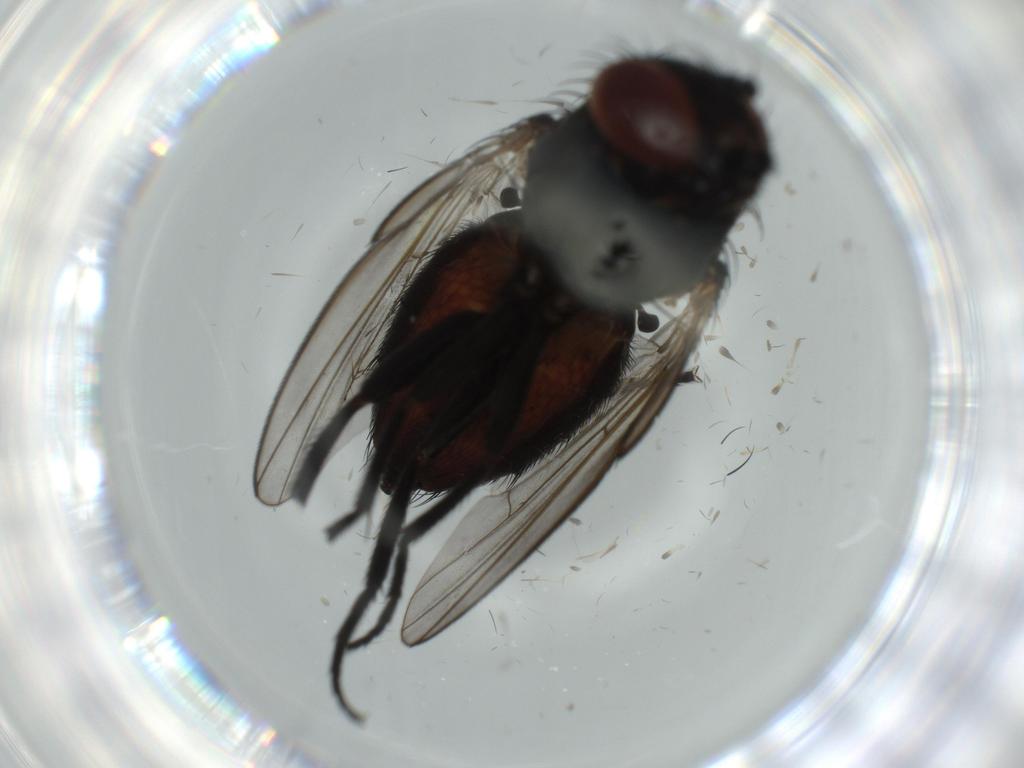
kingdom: Animalia
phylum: Arthropoda
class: Insecta
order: Diptera
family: Milichiidae
